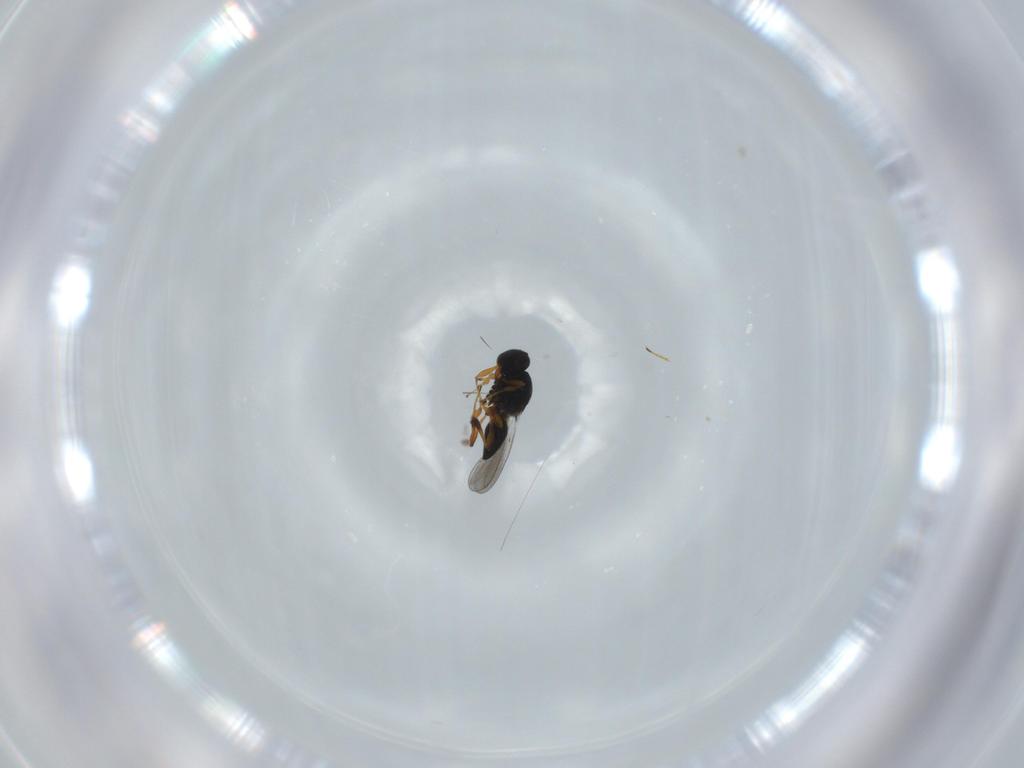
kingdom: Animalia
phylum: Arthropoda
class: Insecta
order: Hymenoptera
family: Platygastridae
